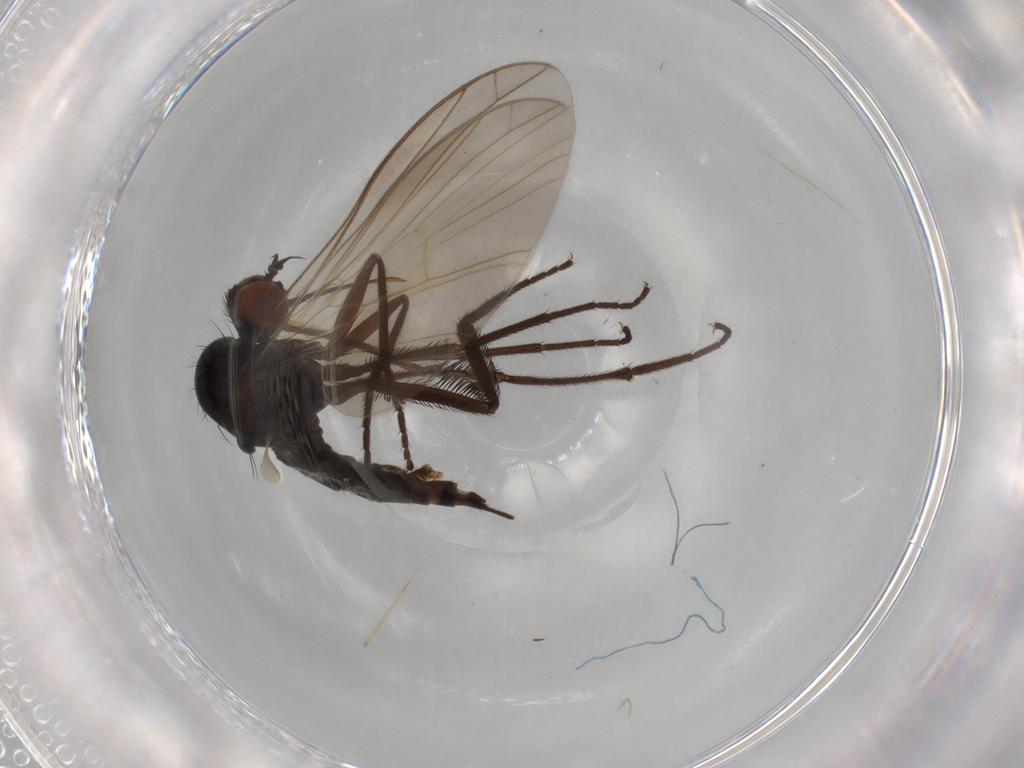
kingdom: Animalia
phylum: Arthropoda
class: Insecta
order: Diptera
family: Empididae
